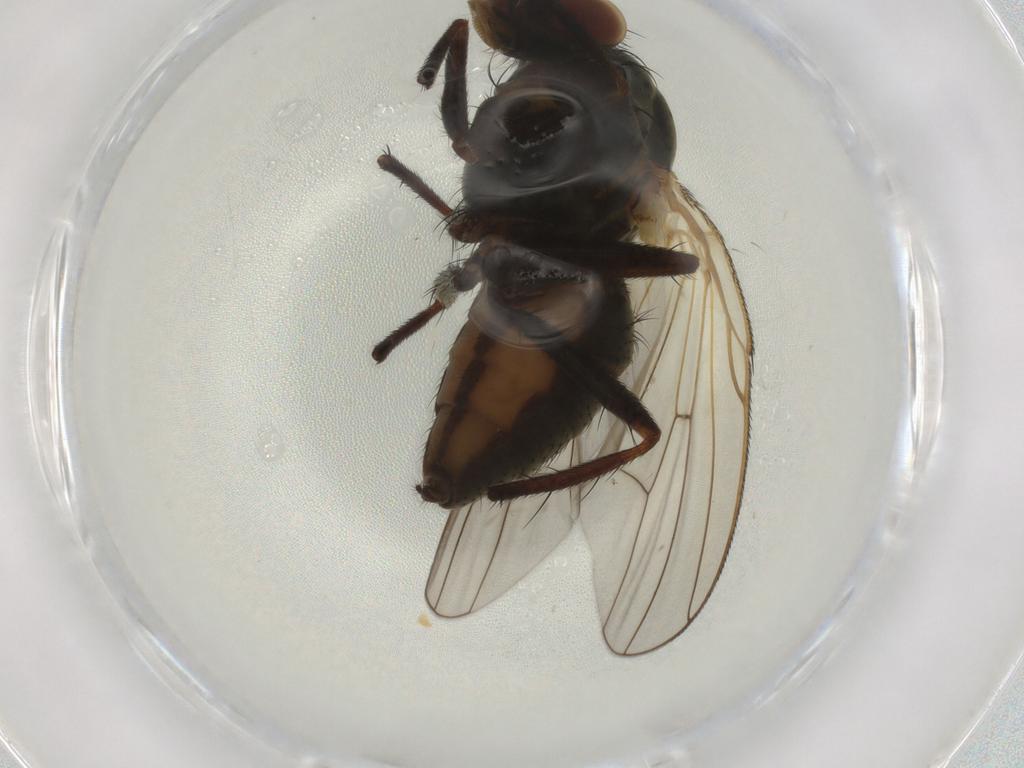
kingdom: Animalia
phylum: Arthropoda
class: Insecta
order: Diptera
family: Anthomyiidae
